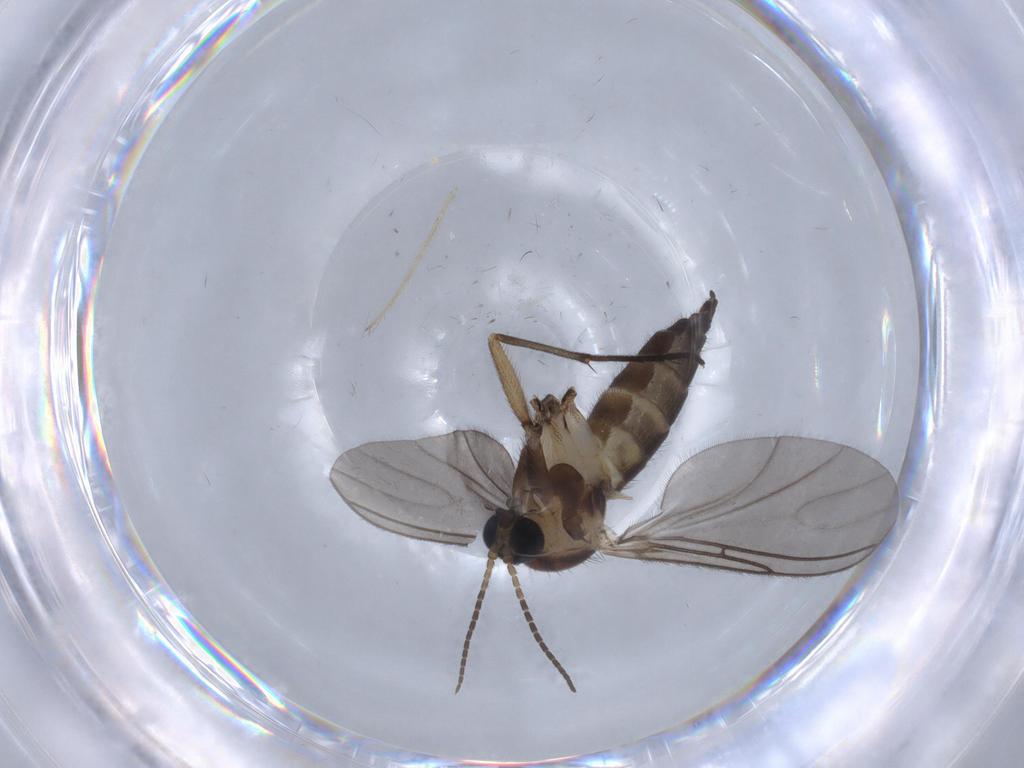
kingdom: Animalia
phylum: Arthropoda
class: Insecta
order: Diptera
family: Sciaridae
